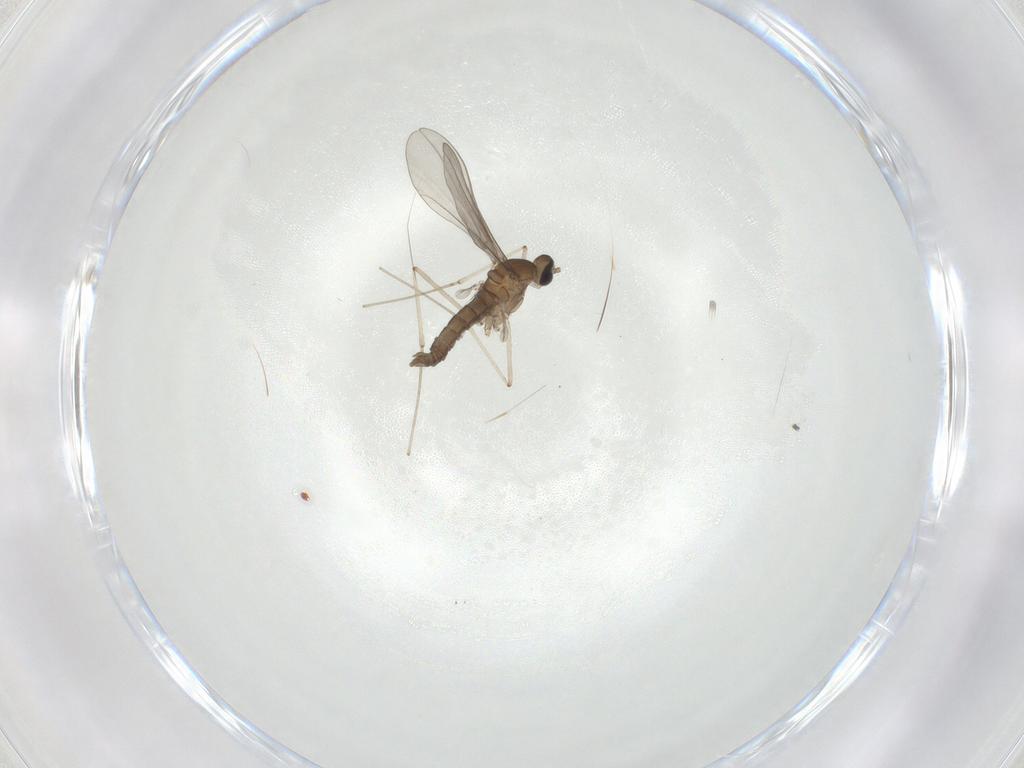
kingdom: Animalia
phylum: Arthropoda
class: Insecta
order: Diptera
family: Cecidomyiidae
